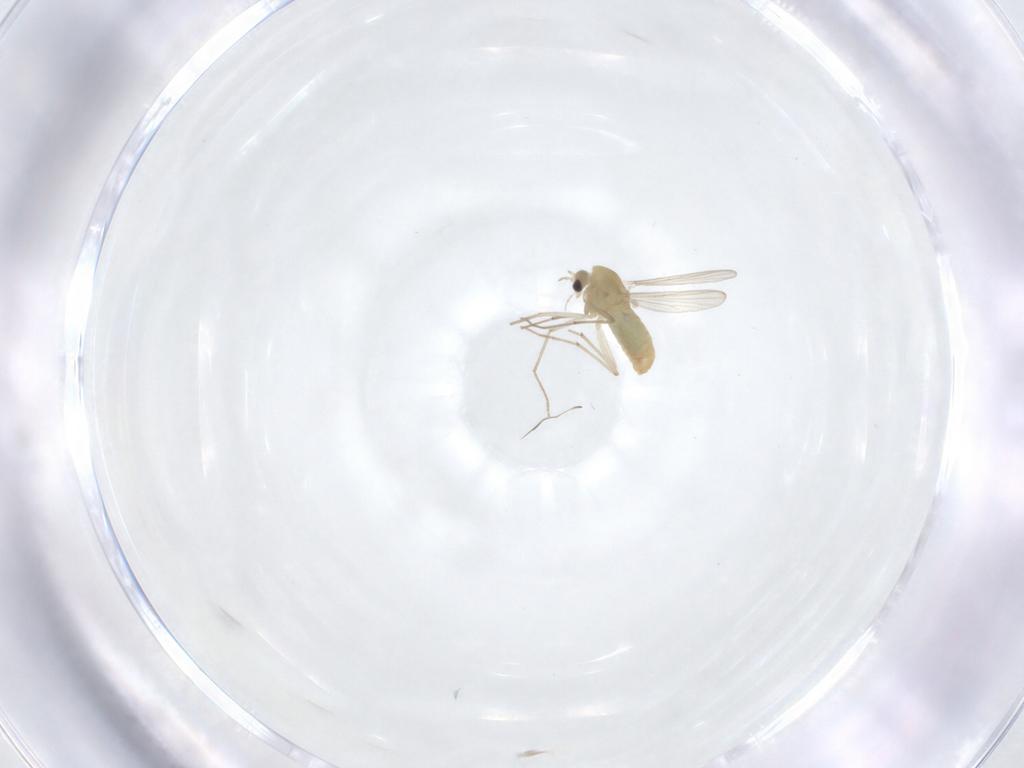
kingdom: Animalia
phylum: Arthropoda
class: Insecta
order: Diptera
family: Chironomidae
